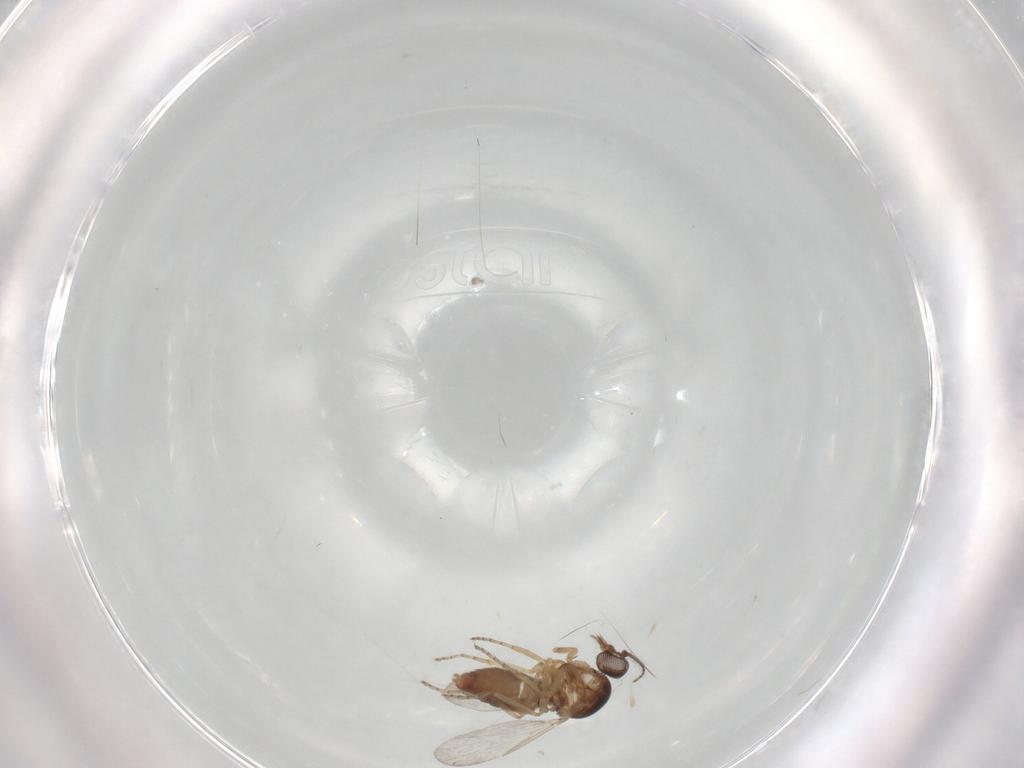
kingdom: Animalia
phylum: Arthropoda
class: Insecta
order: Diptera
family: Ceratopogonidae
